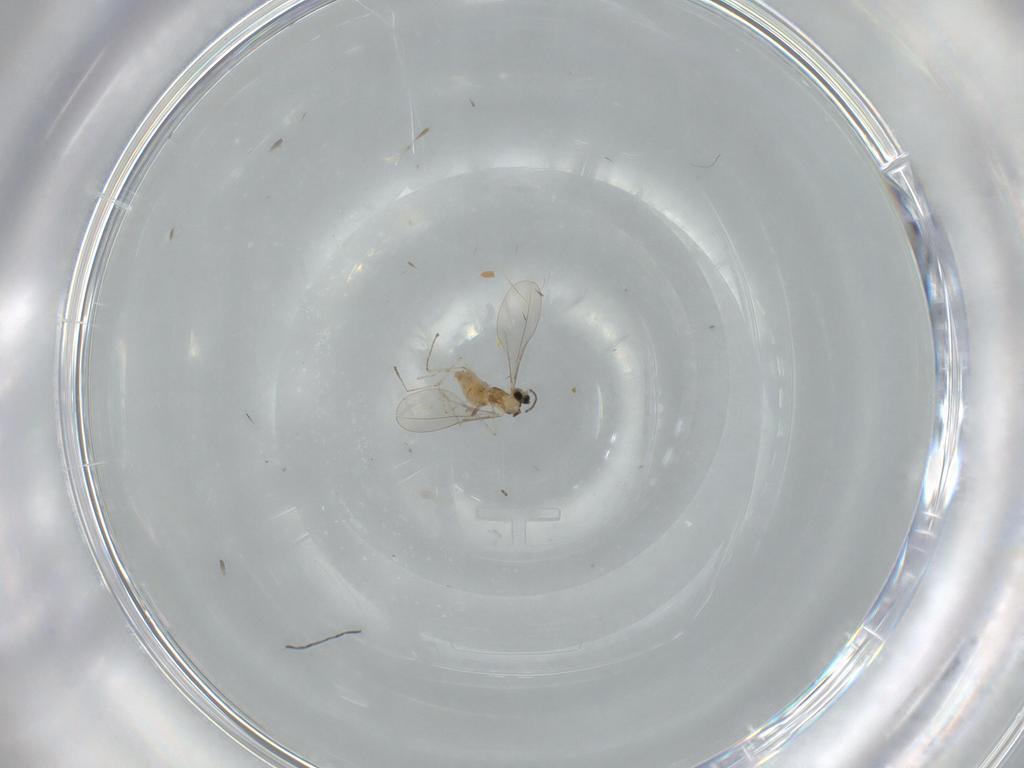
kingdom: Animalia
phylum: Arthropoda
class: Insecta
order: Diptera
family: Cecidomyiidae
